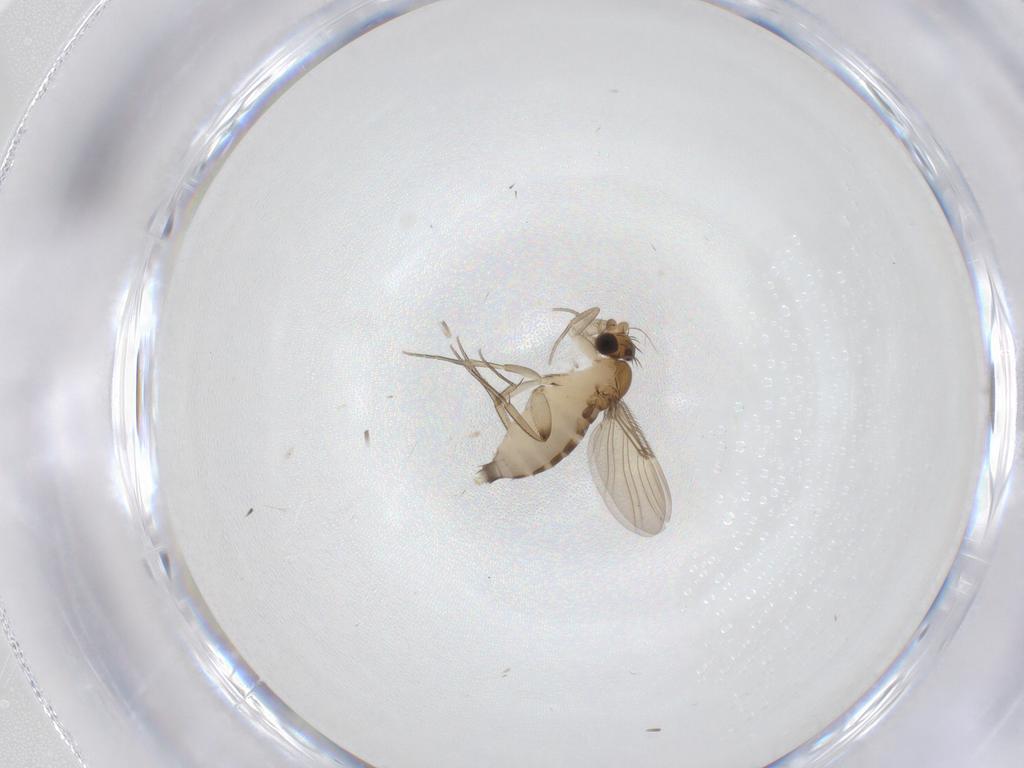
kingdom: Animalia
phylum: Arthropoda
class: Insecta
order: Diptera
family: Phoridae
